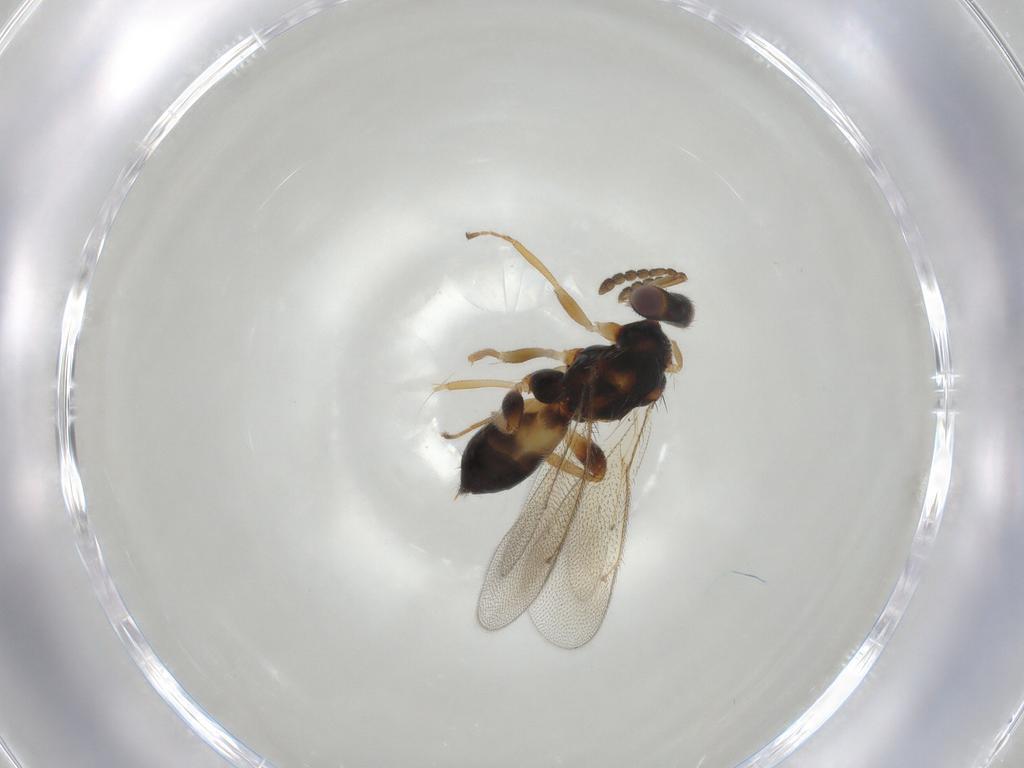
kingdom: Animalia
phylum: Arthropoda
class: Insecta
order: Hymenoptera
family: Eulophidae
